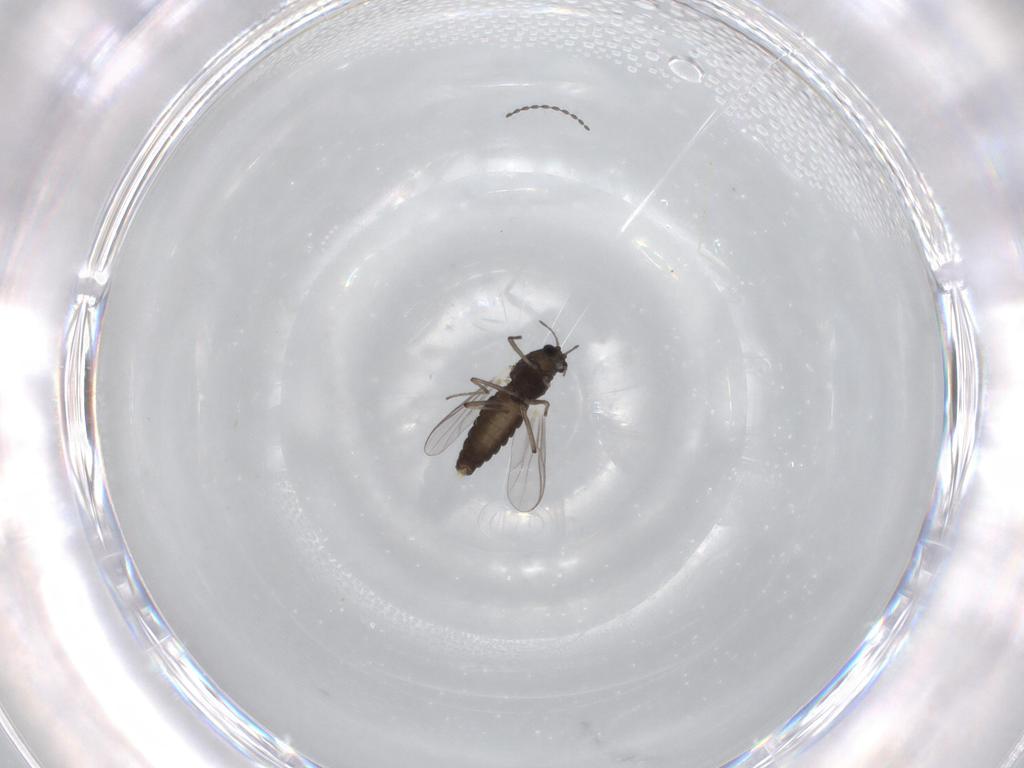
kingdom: Animalia
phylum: Arthropoda
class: Insecta
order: Diptera
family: Chironomidae
